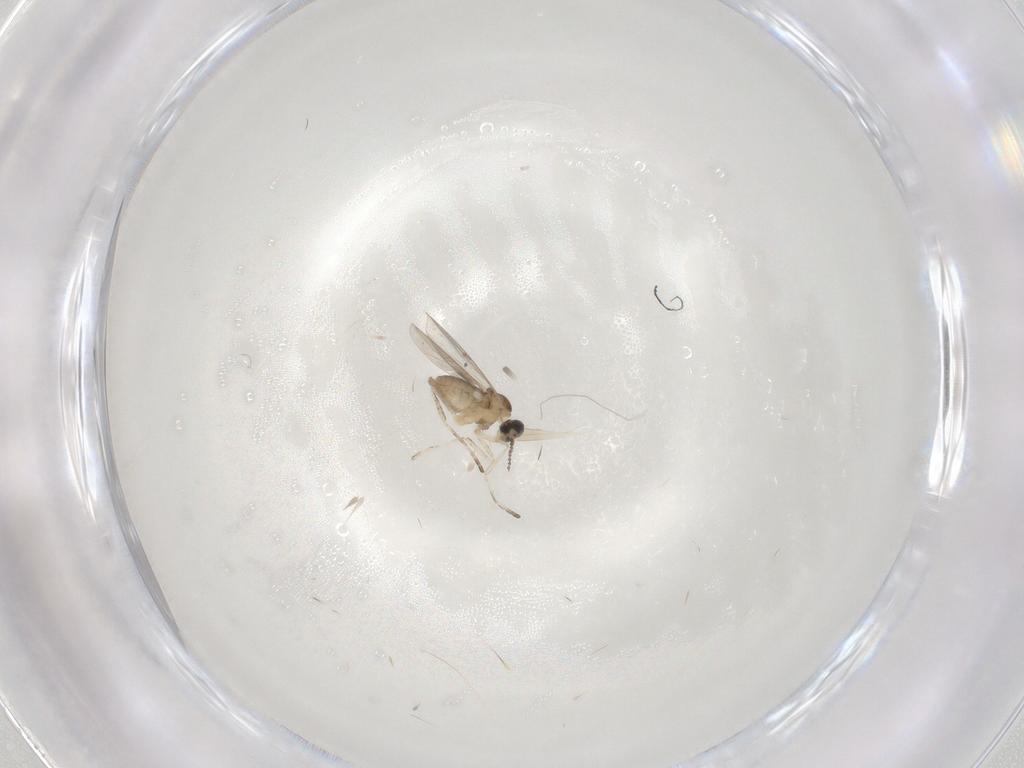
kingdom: Animalia
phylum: Arthropoda
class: Insecta
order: Diptera
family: Cecidomyiidae
